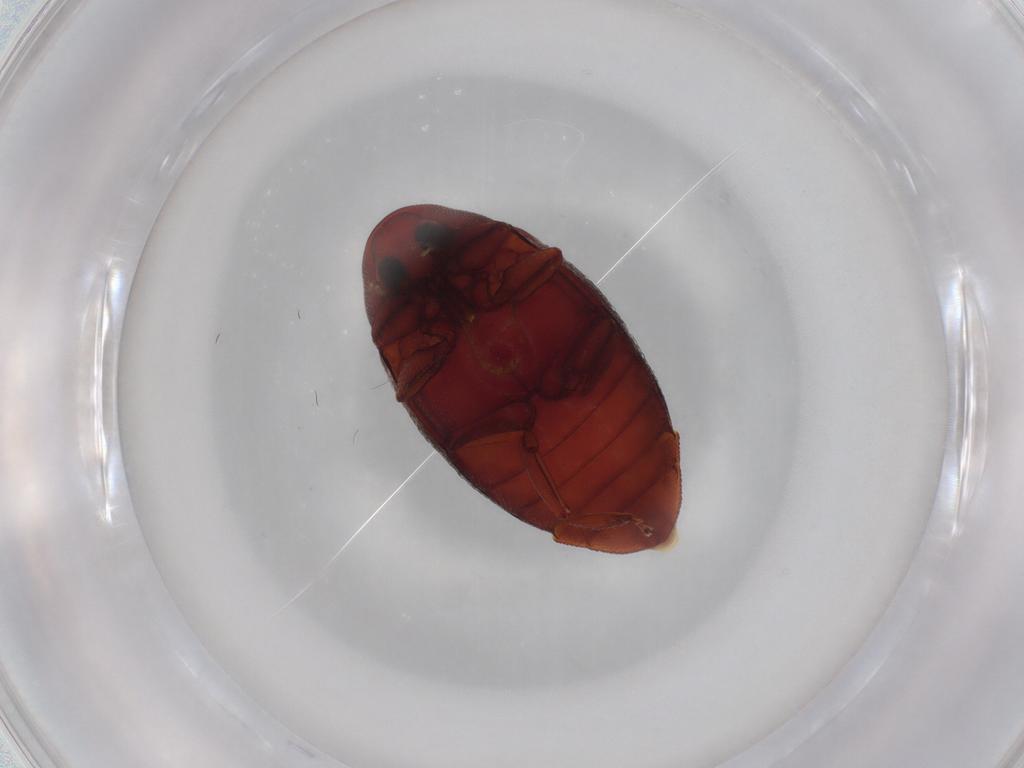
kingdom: Animalia
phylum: Arthropoda
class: Insecta
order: Coleoptera
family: Chelonariidae
